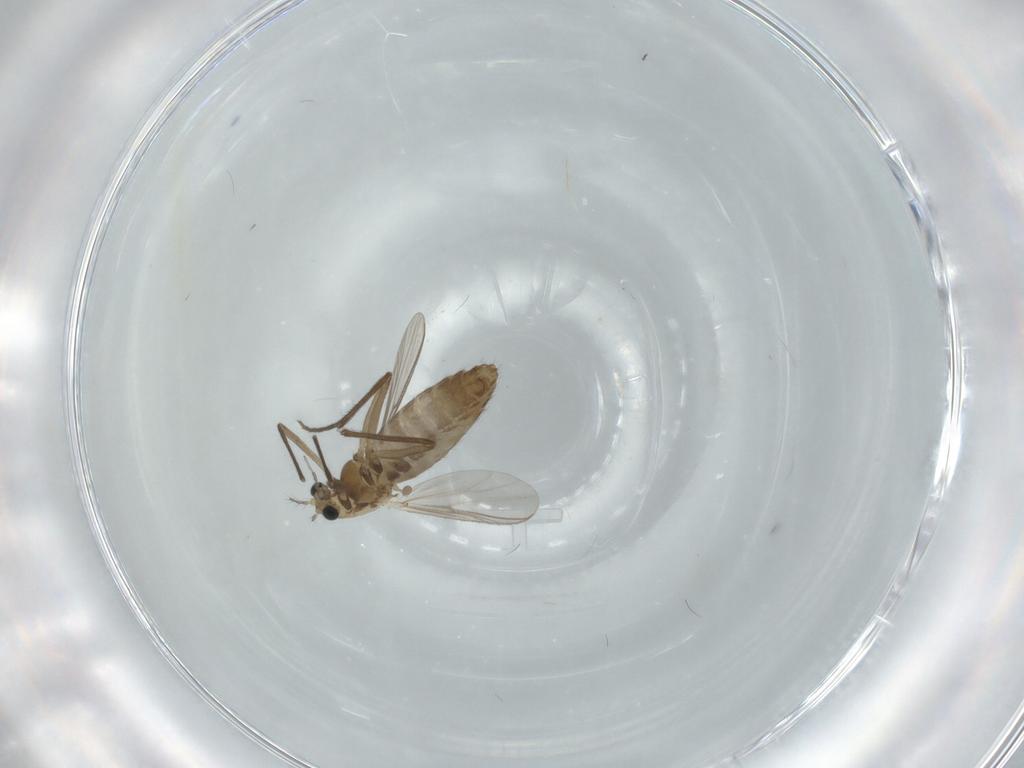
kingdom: Animalia
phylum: Arthropoda
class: Insecta
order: Diptera
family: Chironomidae
